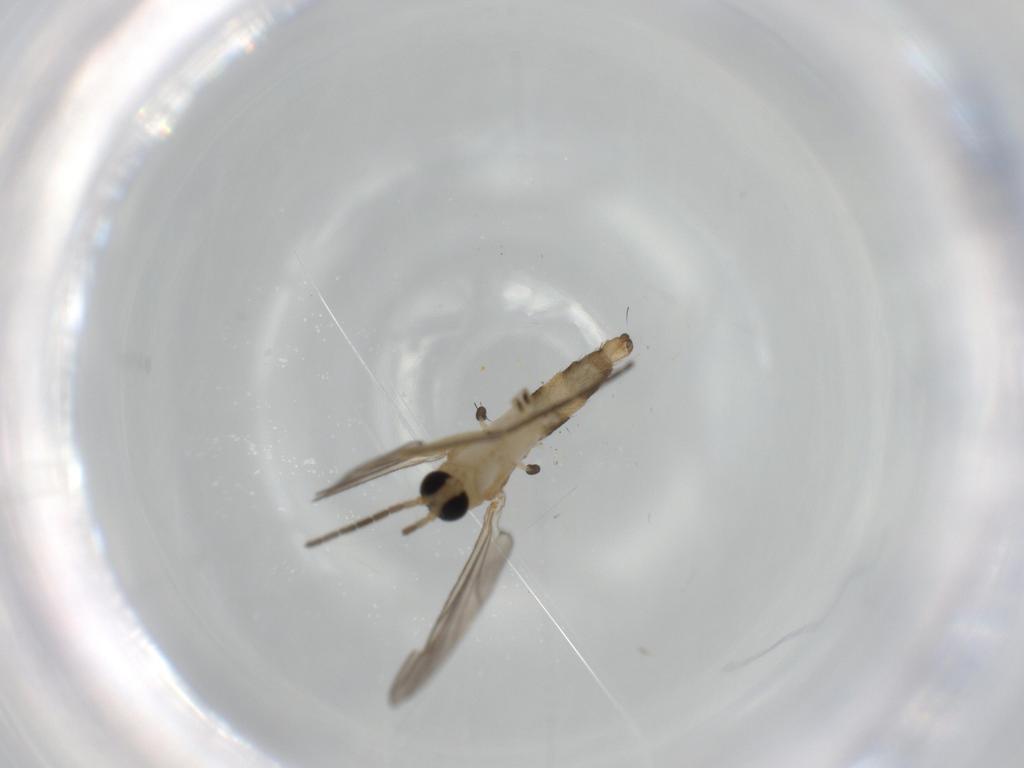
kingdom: Animalia
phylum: Arthropoda
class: Insecta
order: Diptera
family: Sciaridae
